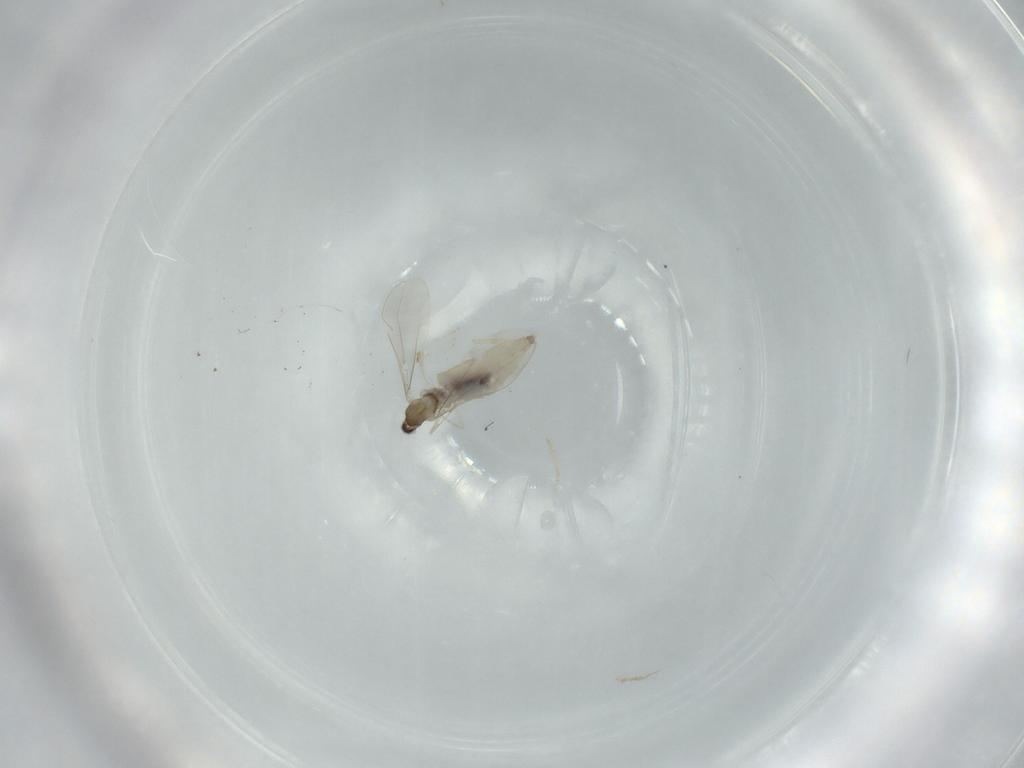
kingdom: Animalia
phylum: Arthropoda
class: Insecta
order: Diptera
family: Cecidomyiidae
